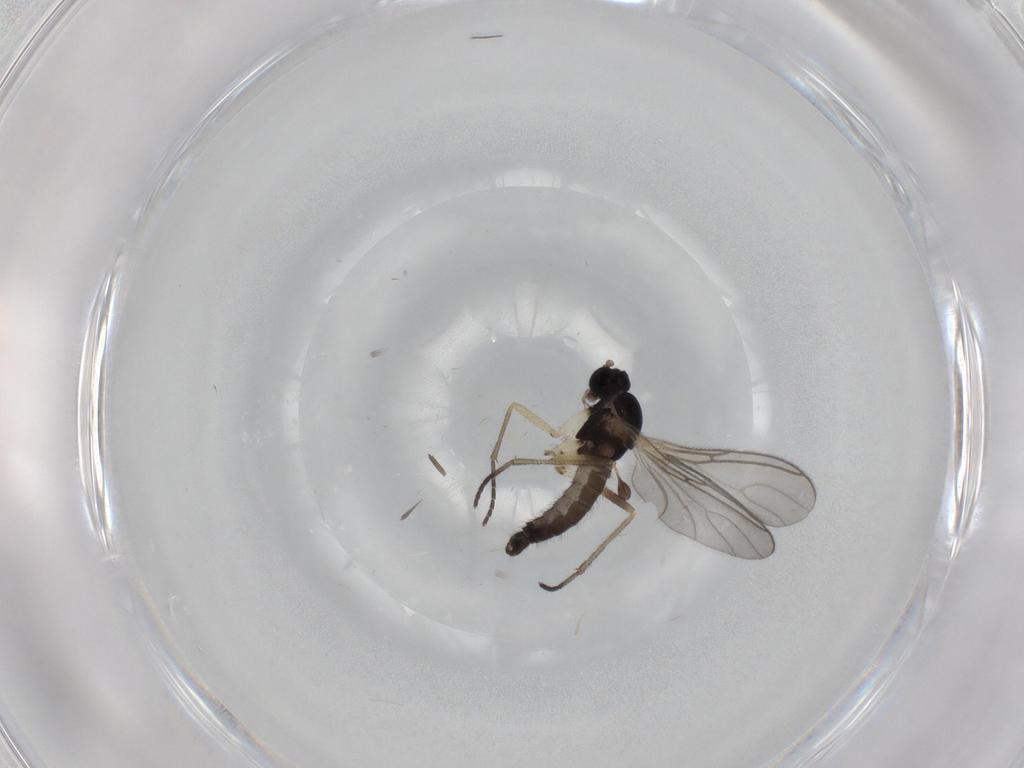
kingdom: Animalia
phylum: Arthropoda
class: Insecta
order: Diptera
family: Sciaridae
